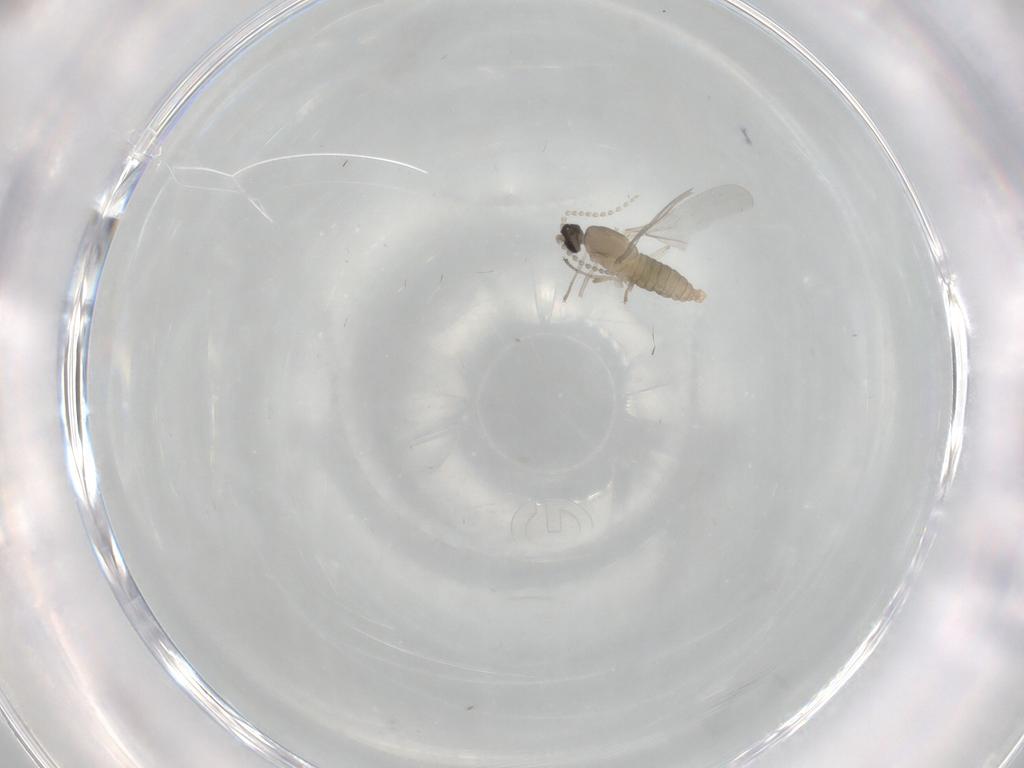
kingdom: Animalia
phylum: Arthropoda
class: Insecta
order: Diptera
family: Cecidomyiidae
